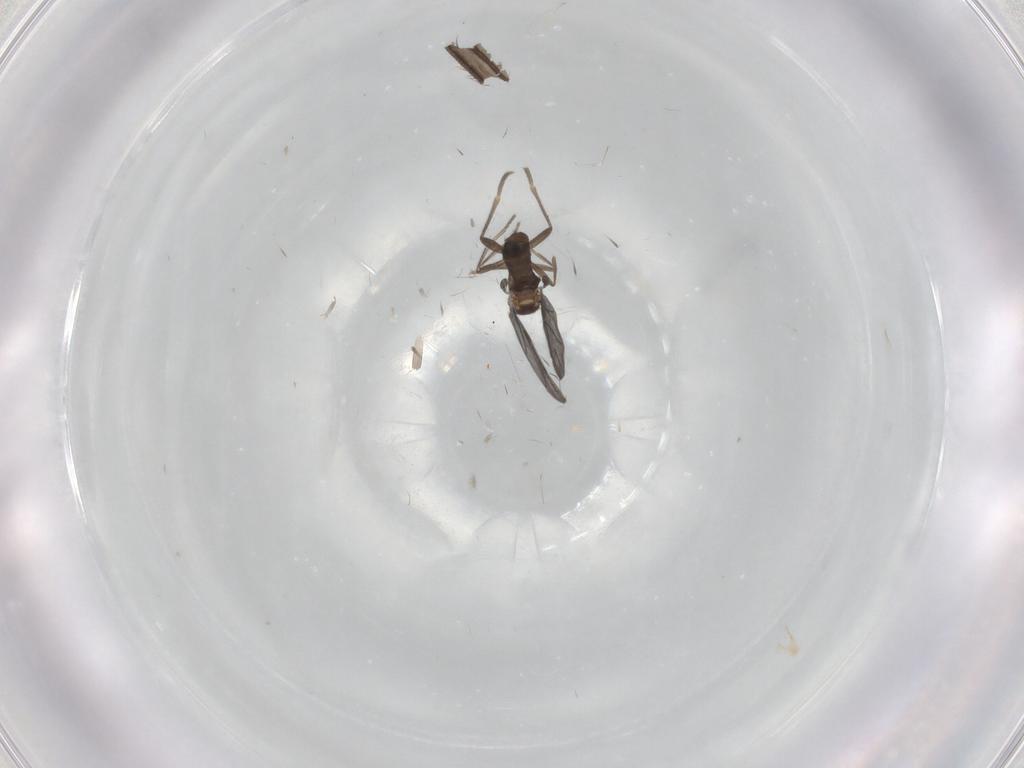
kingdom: Animalia
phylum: Arthropoda
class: Insecta
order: Diptera
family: Phoridae
